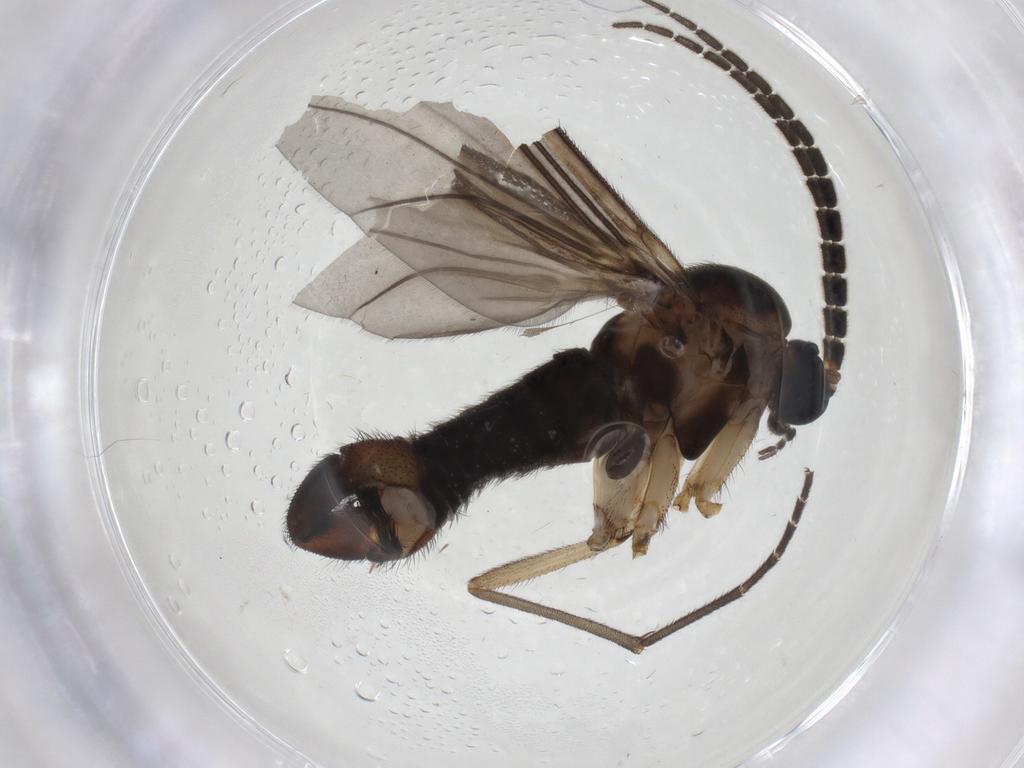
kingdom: Animalia
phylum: Arthropoda
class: Insecta
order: Diptera
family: Sciaridae
